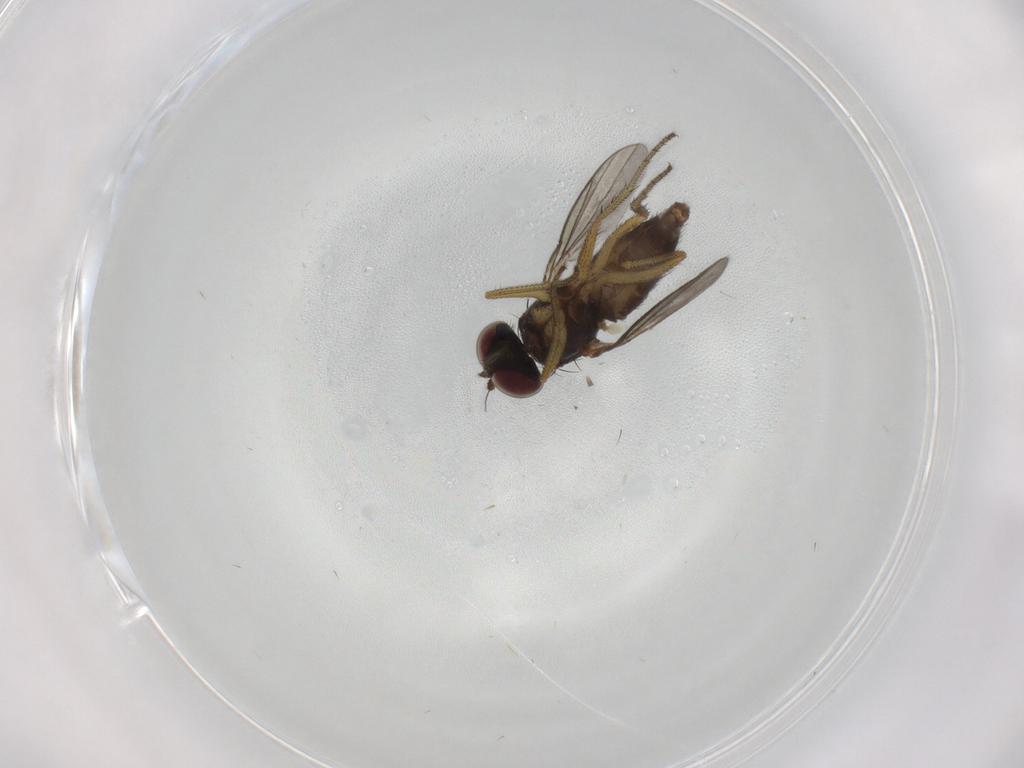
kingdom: Animalia
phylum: Arthropoda
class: Insecta
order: Diptera
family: Dolichopodidae
